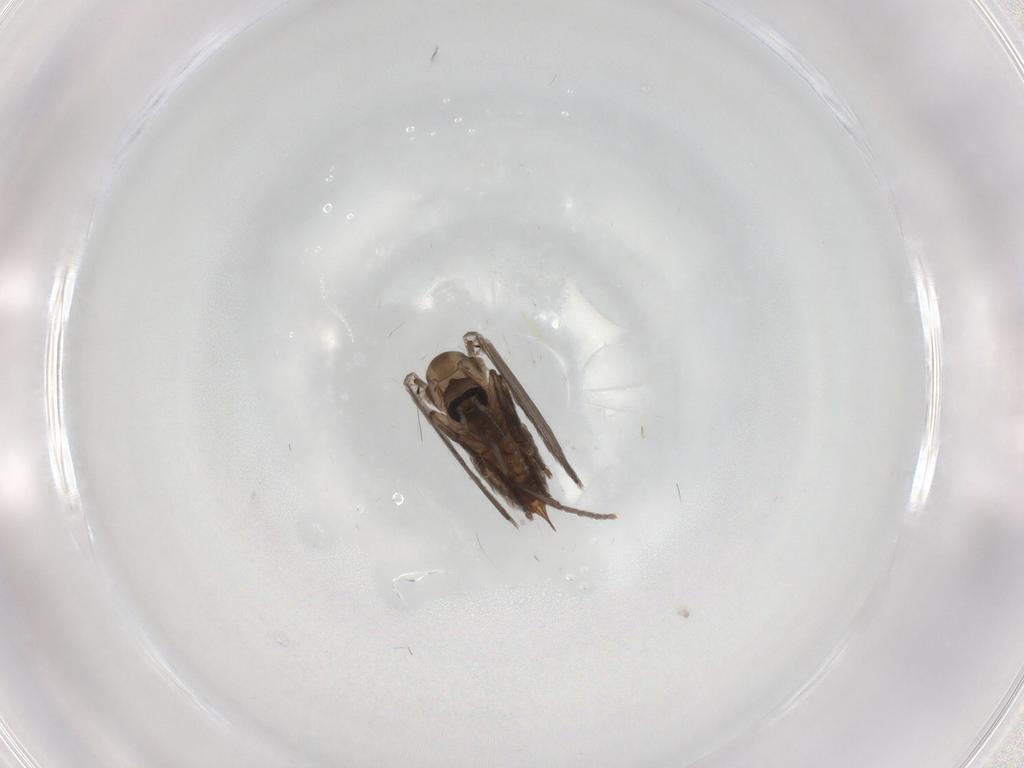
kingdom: Animalia
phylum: Arthropoda
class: Insecta
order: Diptera
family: Psychodidae
